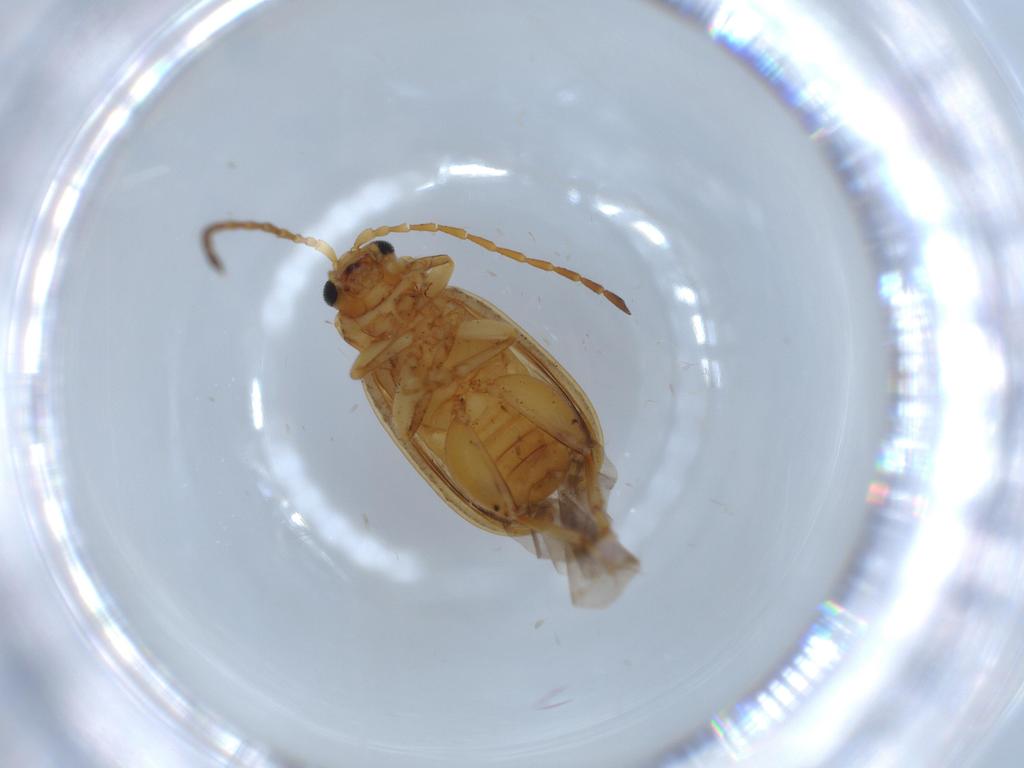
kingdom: Animalia
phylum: Arthropoda
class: Insecta
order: Coleoptera
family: Chrysomelidae
